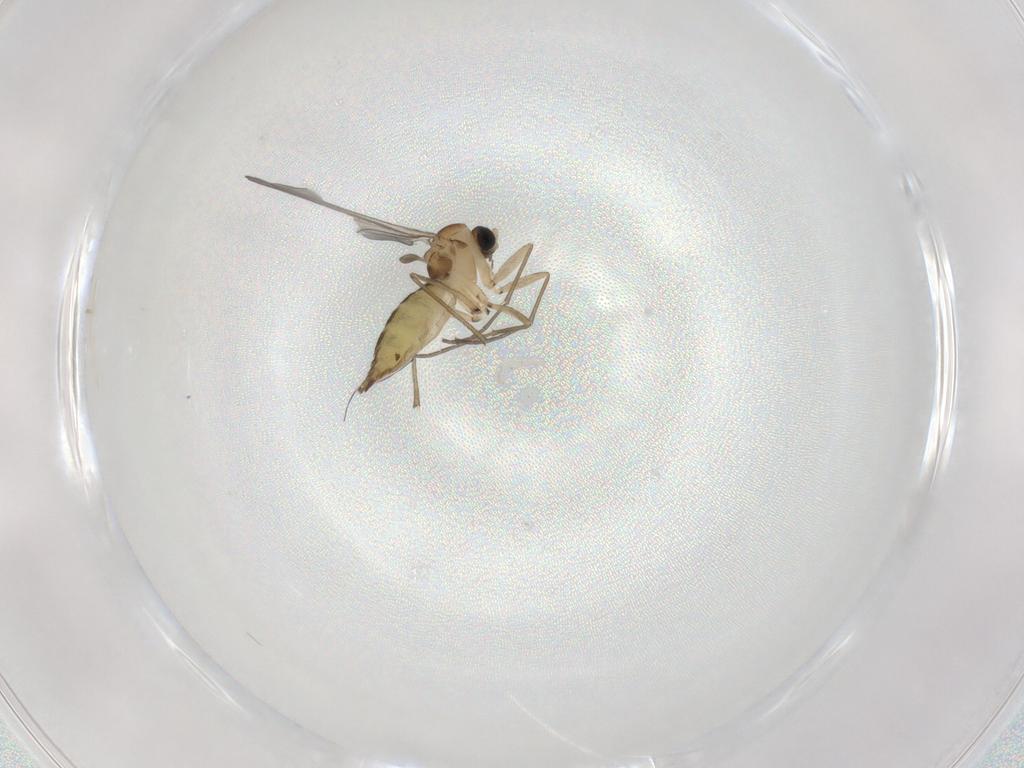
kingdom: Animalia
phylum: Arthropoda
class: Insecta
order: Diptera
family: Sciaridae
